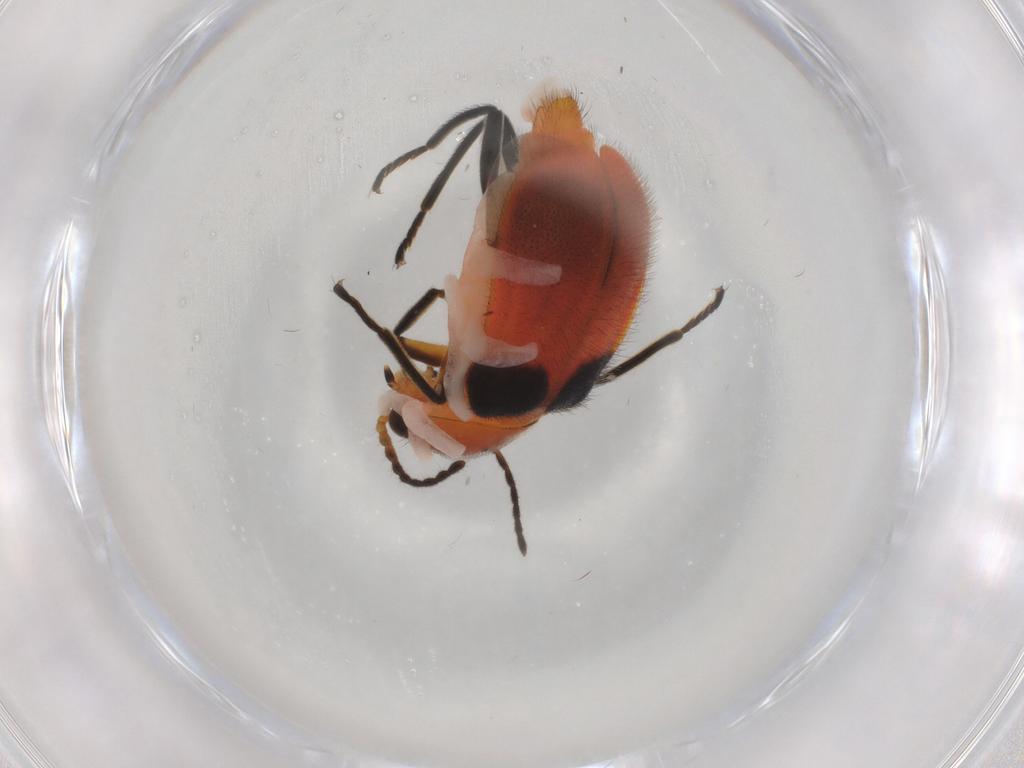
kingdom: Animalia
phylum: Arthropoda
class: Insecta
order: Coleoptera
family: Melyridae
